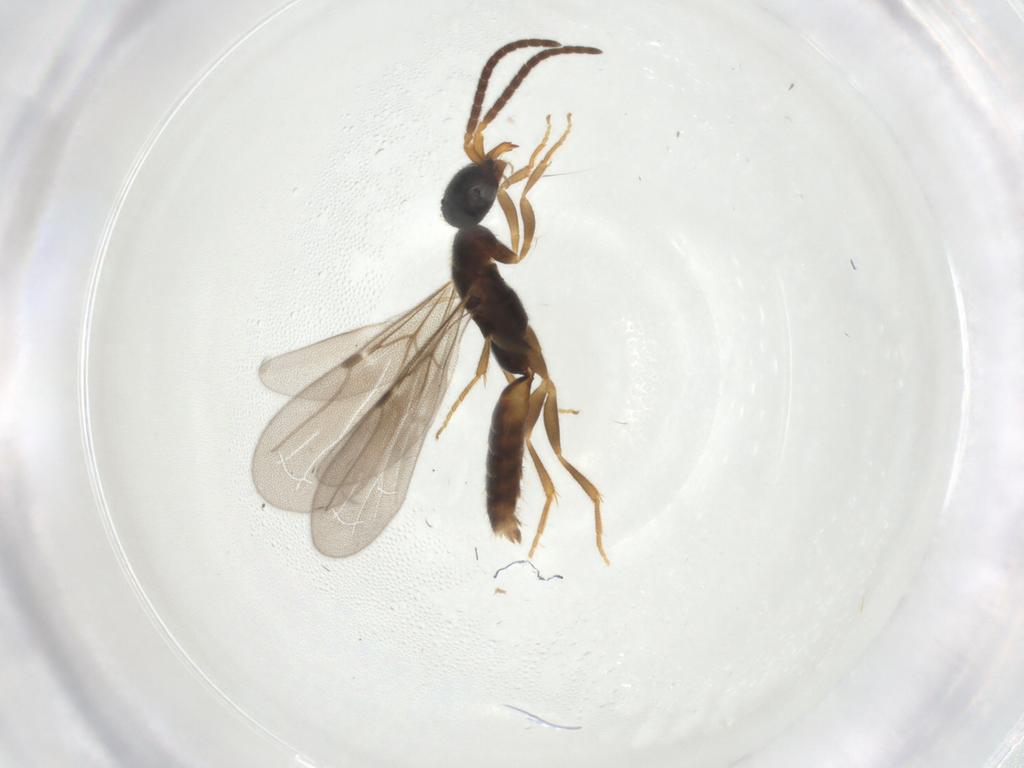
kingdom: Animalia
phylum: Arthropoda
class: Insecta
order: Hymenoptera
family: Bethylidae
